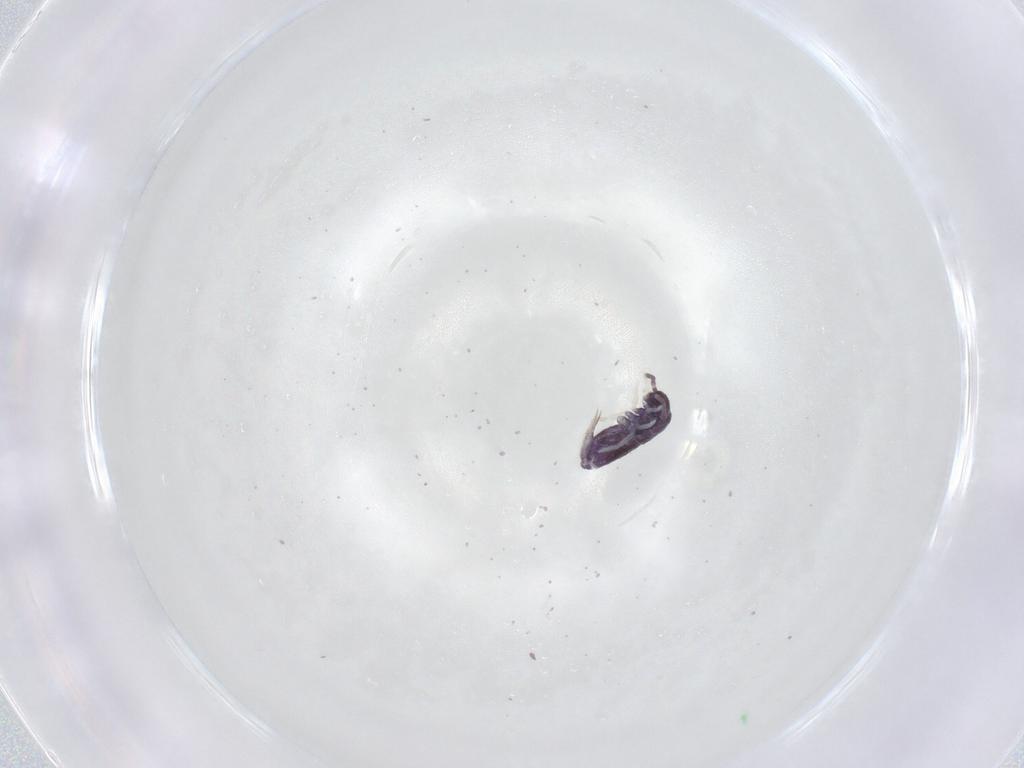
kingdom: Animalia
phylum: Arthropoda
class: Collembola
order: Entomobryomorpha
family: Entomobryidae
